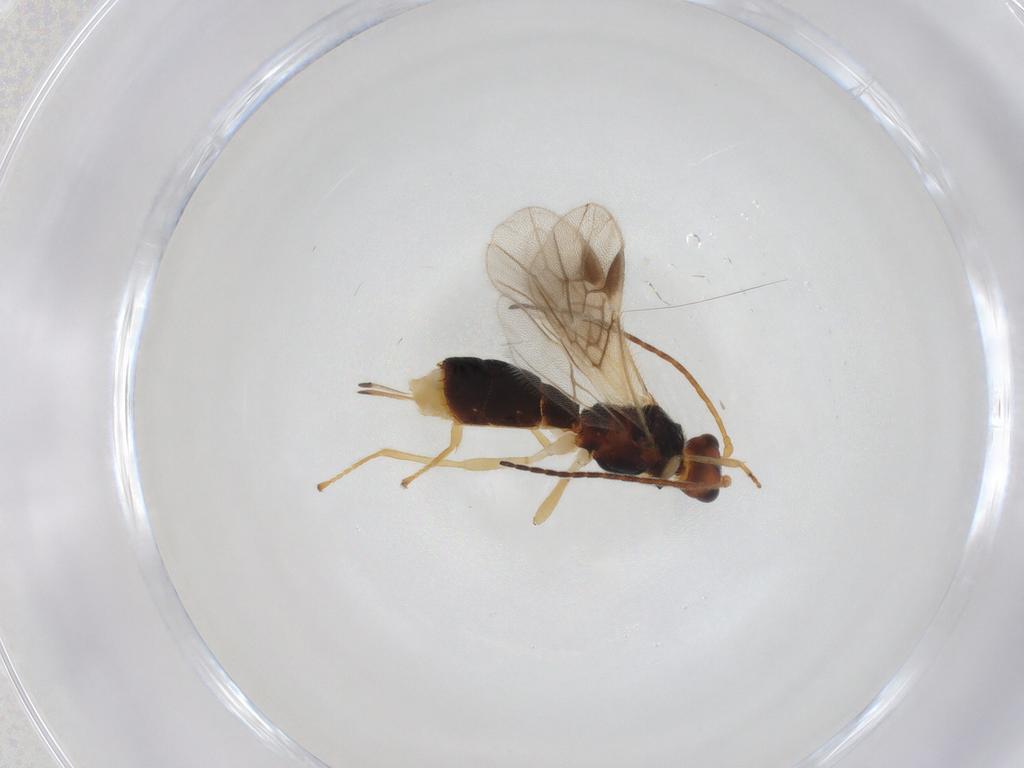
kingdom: Animalia
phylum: Arthropoda
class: Insecta
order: Hymenoptera
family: Braconidae
